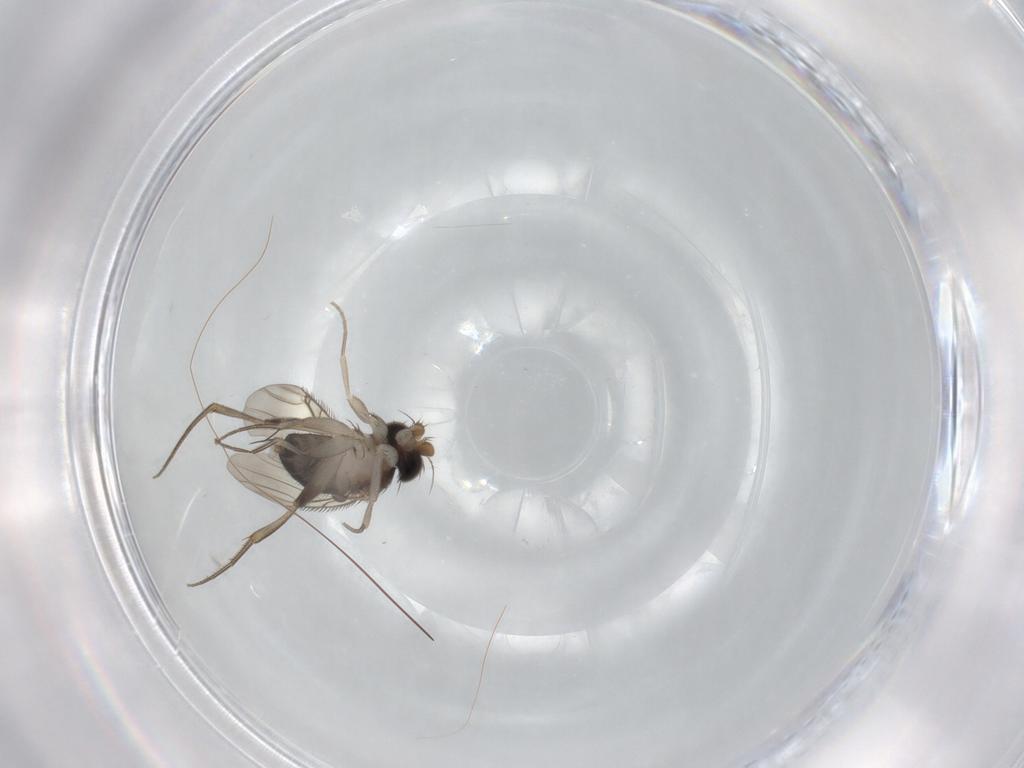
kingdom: Animalia
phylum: Arthropoda
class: Insecta
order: Diptera
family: Phoridae
